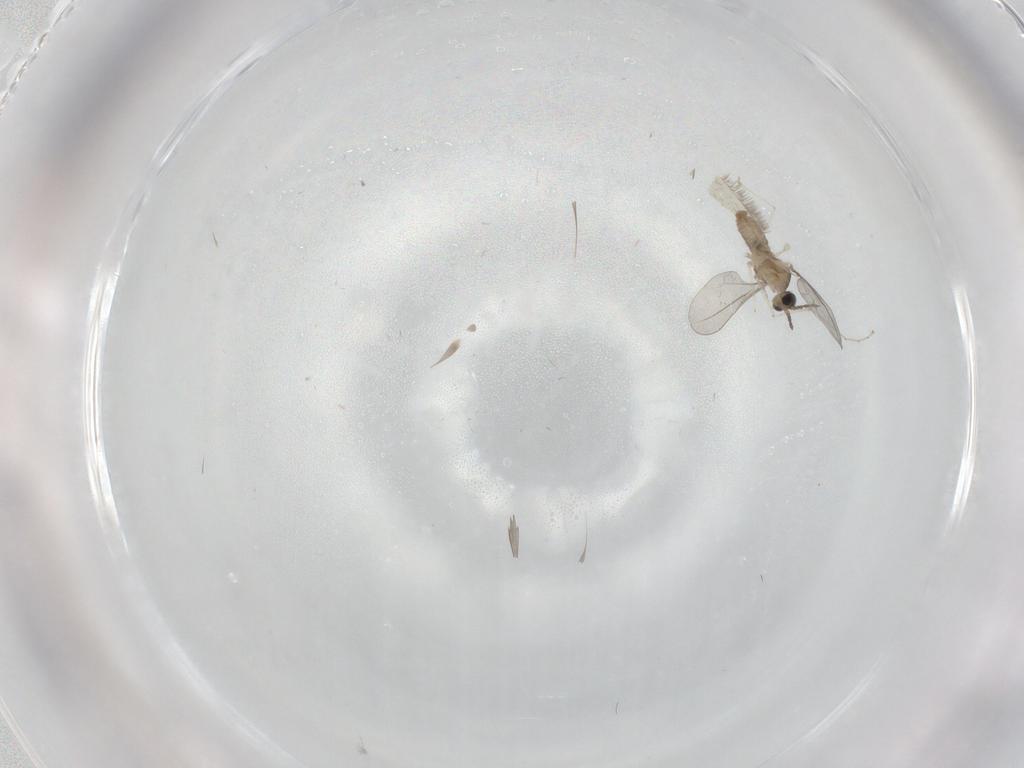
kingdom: Animalia
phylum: Arthropoda
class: Insecta
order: Diptera
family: Cecidomyiidae
